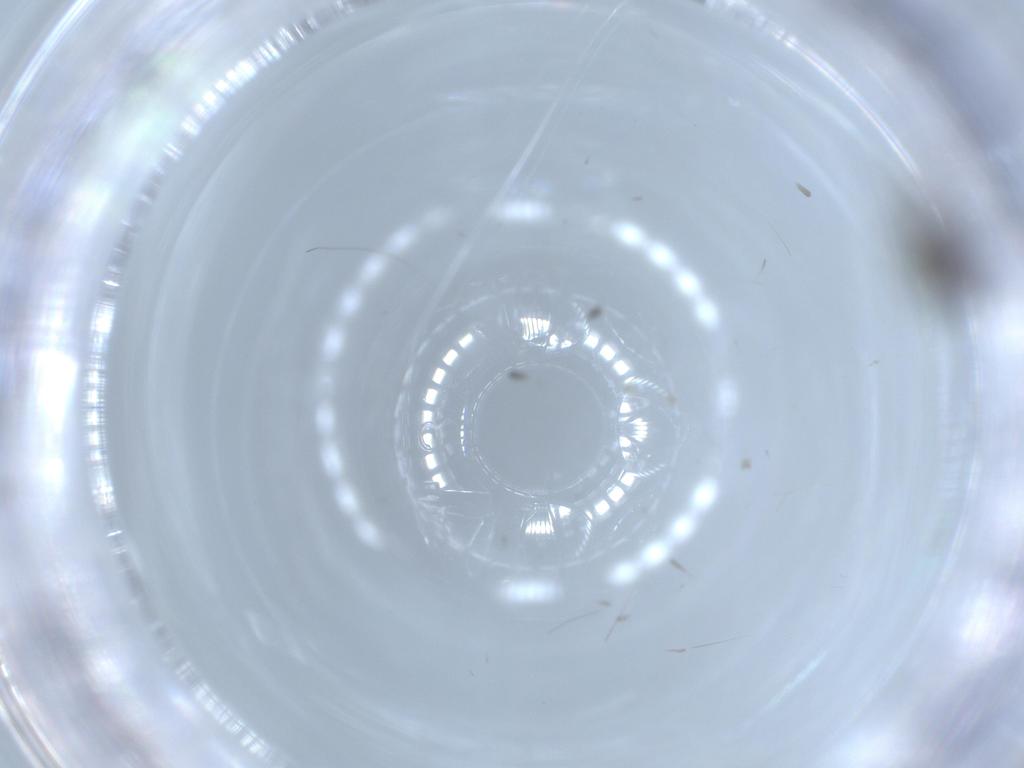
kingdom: Animalia
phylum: Arthropoda
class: Insecta
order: Diptera
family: Chironomidae
